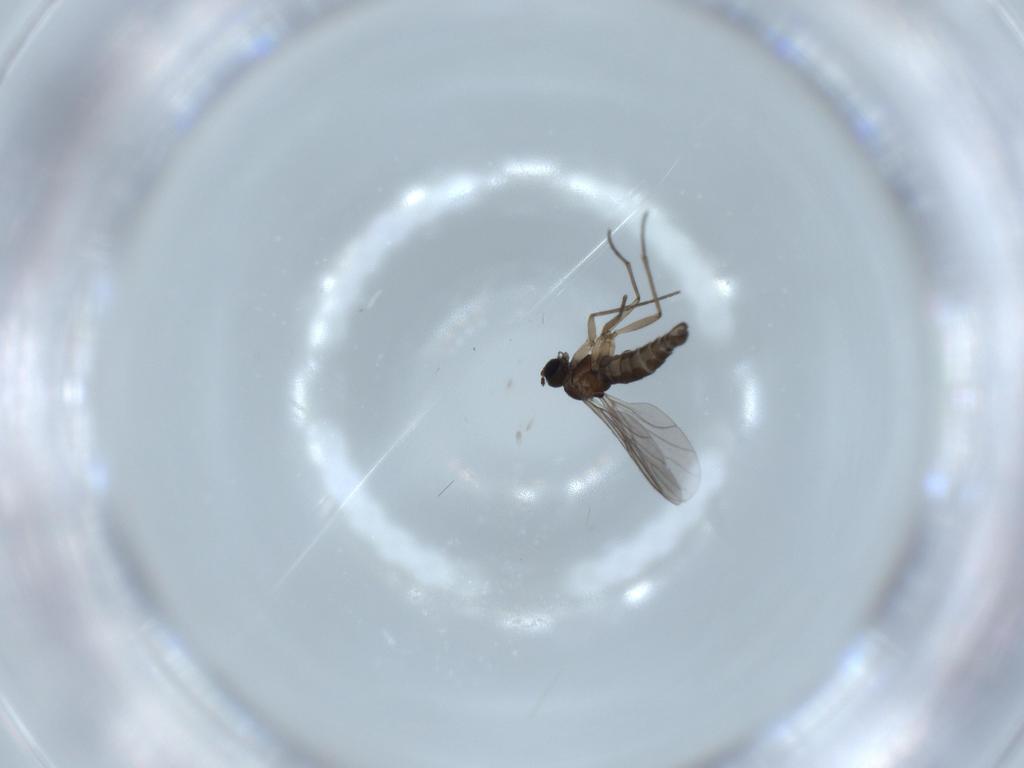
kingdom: Animalia
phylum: Arthropoda
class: Insecta
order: Diptera
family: Sciaridae
